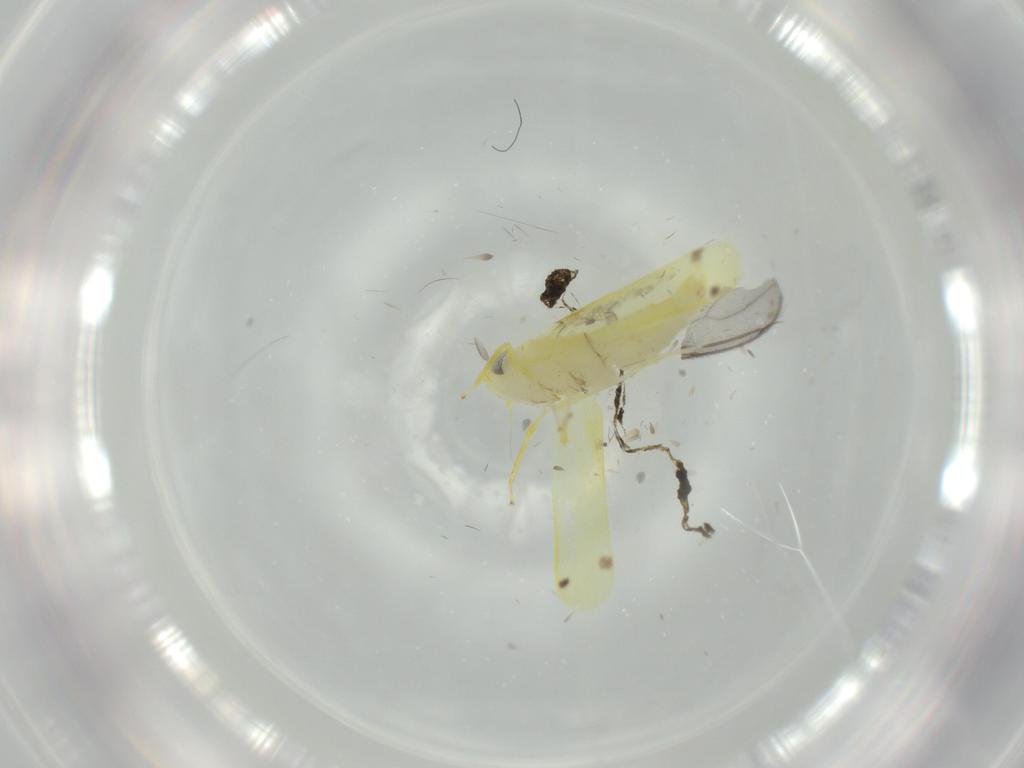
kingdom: Animalia
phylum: Arthropoda
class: Insecta
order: Hemiptera
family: Cicadellidae
